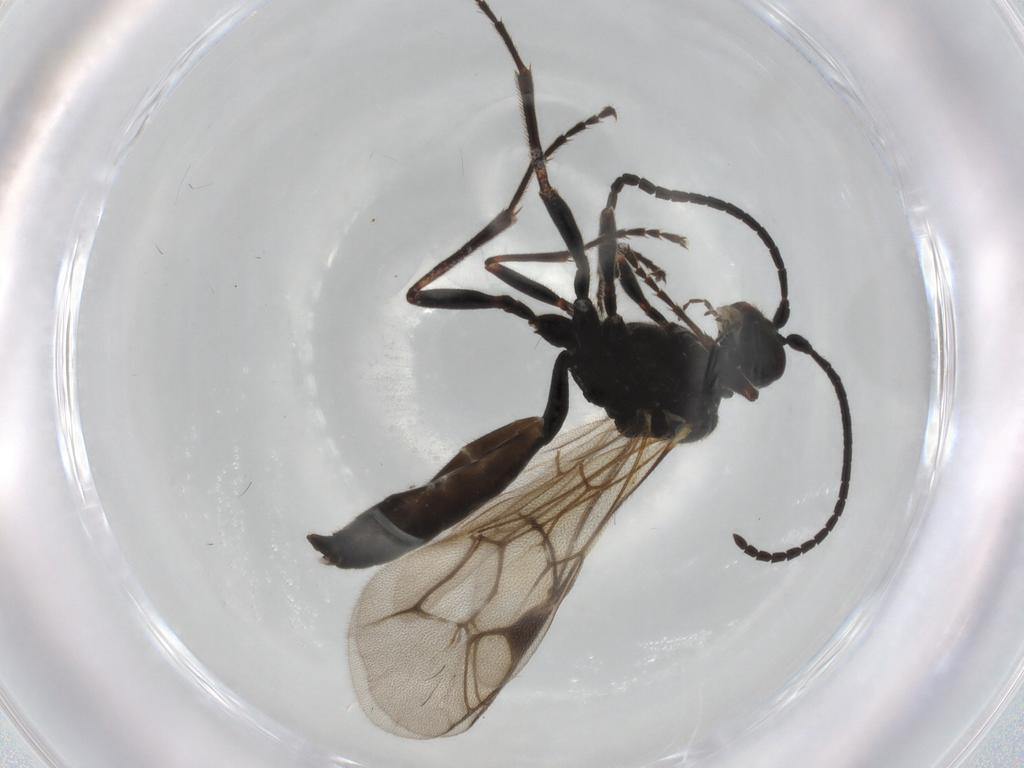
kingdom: Animalia
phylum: Arthropoda
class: Insecta
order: Hymenoptera
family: Ichneumonidae
